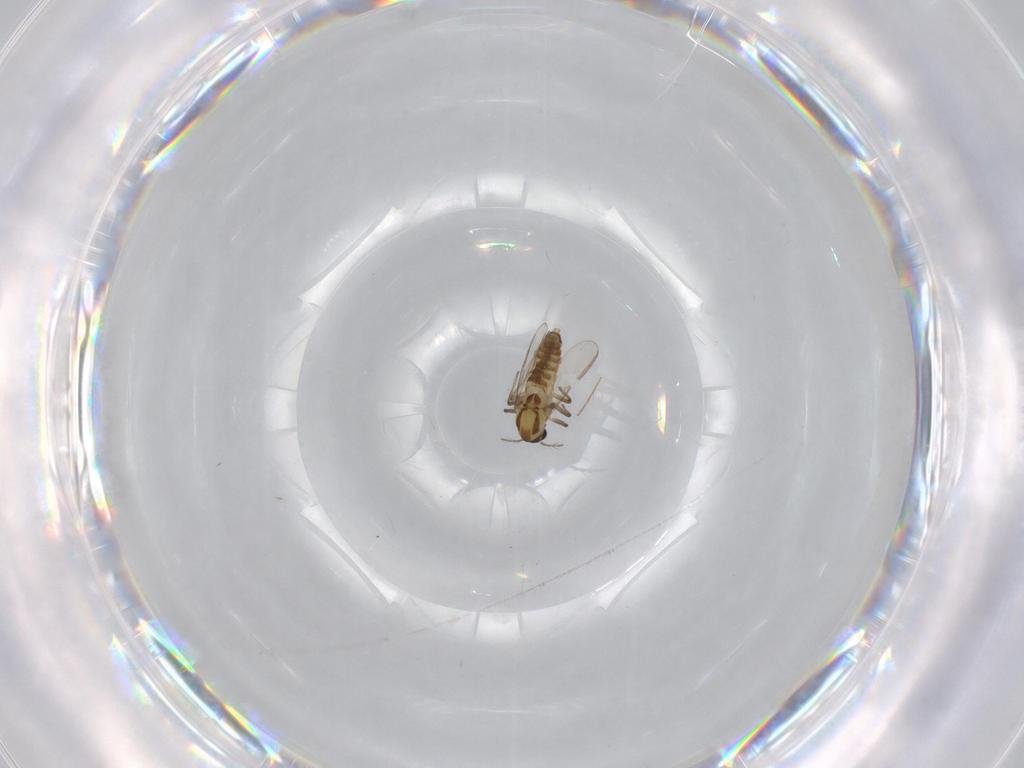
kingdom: Animalia
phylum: Arthropoda
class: Insecta
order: Diptera
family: Chironomidae
